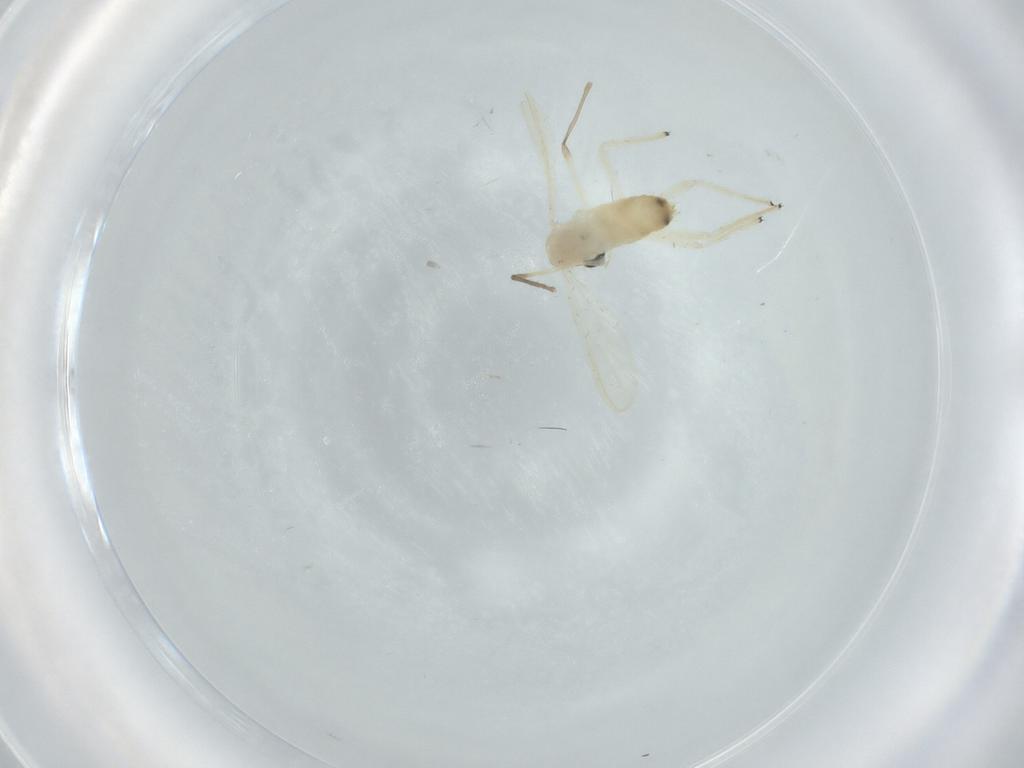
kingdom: Animalia
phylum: Arthropoda
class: Insecta
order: Diptera
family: Chironomidae
